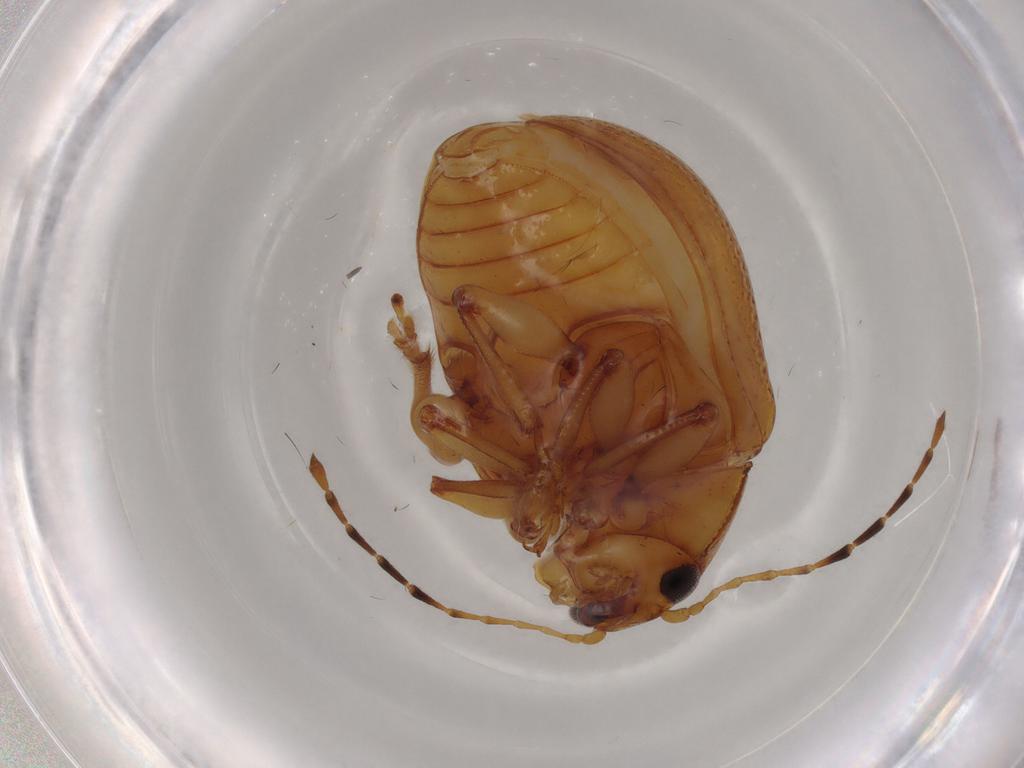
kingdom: Animalia
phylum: Arthropoda
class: Insecta
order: Coleoptera
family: Chrysomelidae
